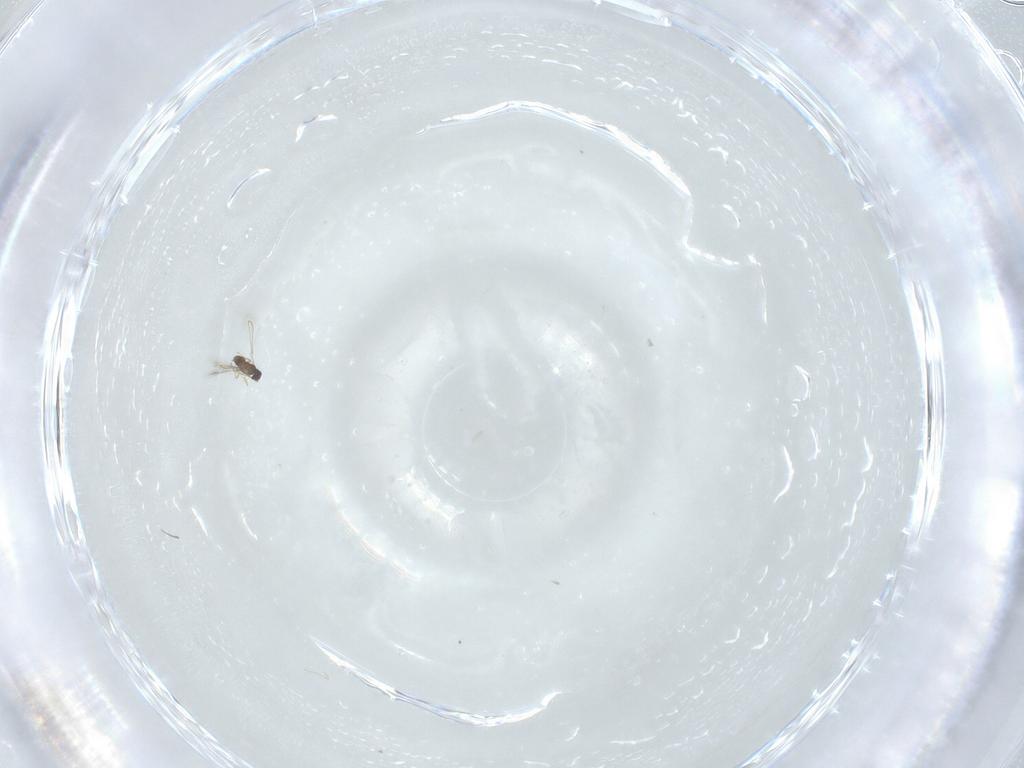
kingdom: Animalia
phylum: Arthropoda
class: Insecta
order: Diptera
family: Cecidomyiidae
